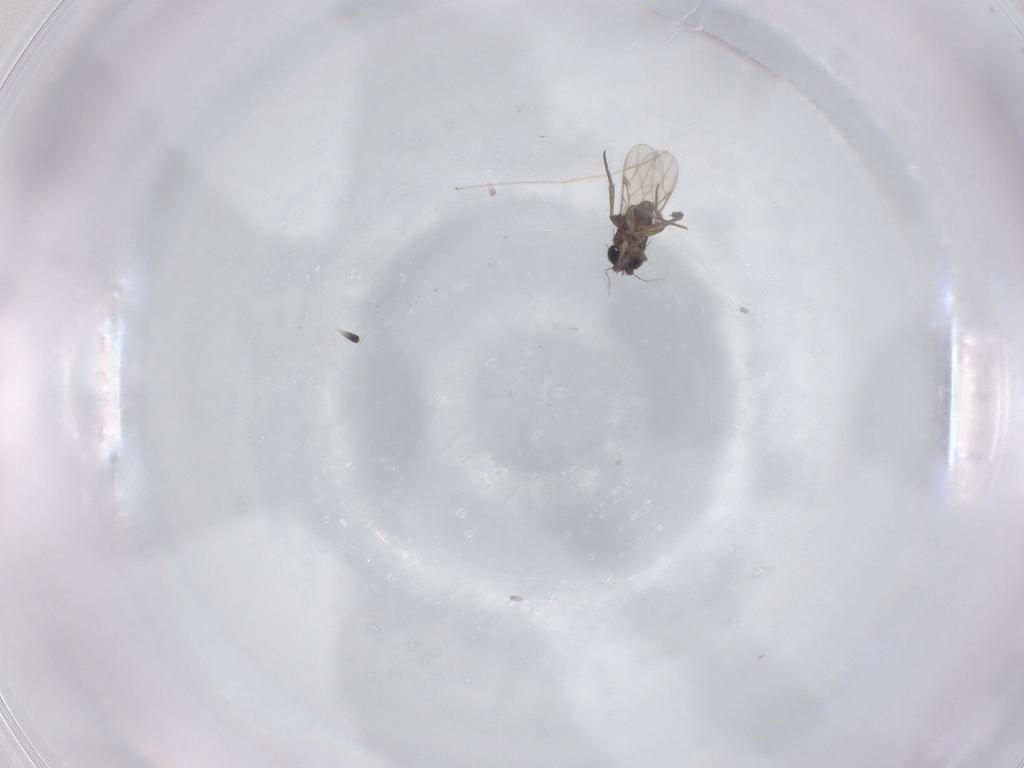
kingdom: Animalia
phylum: Arthropoda
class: Insecta
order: Diptera
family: Phoridae
